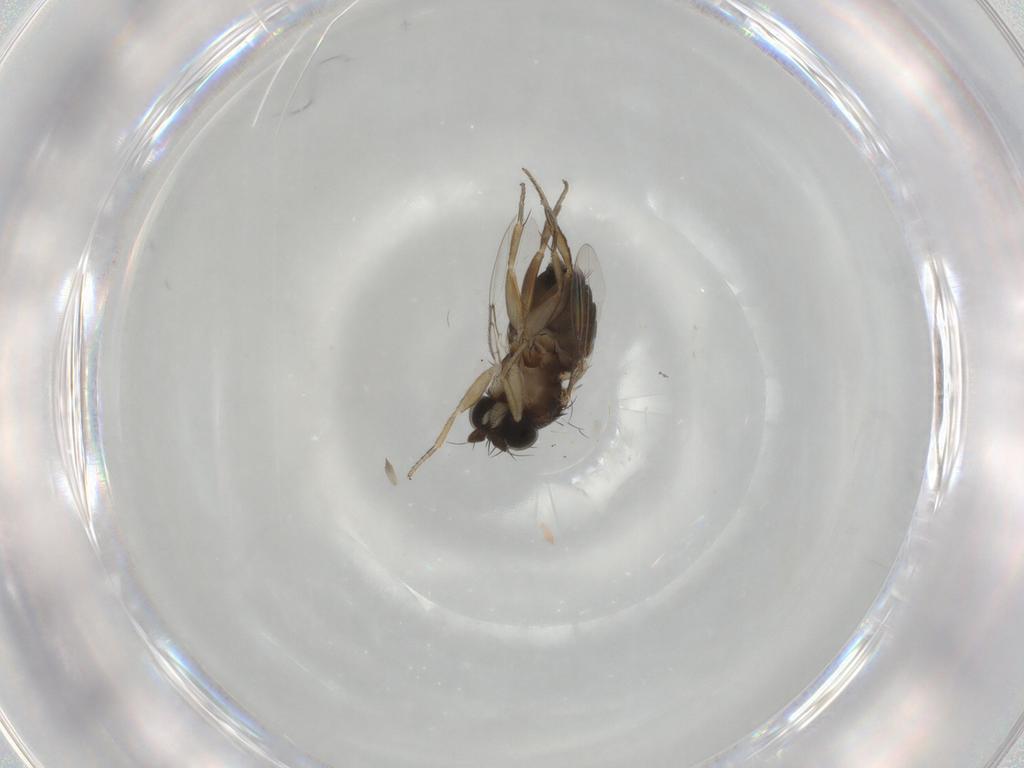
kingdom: Animalia
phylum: Arthropoda
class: Insecta
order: Diptera
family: Phoridae
